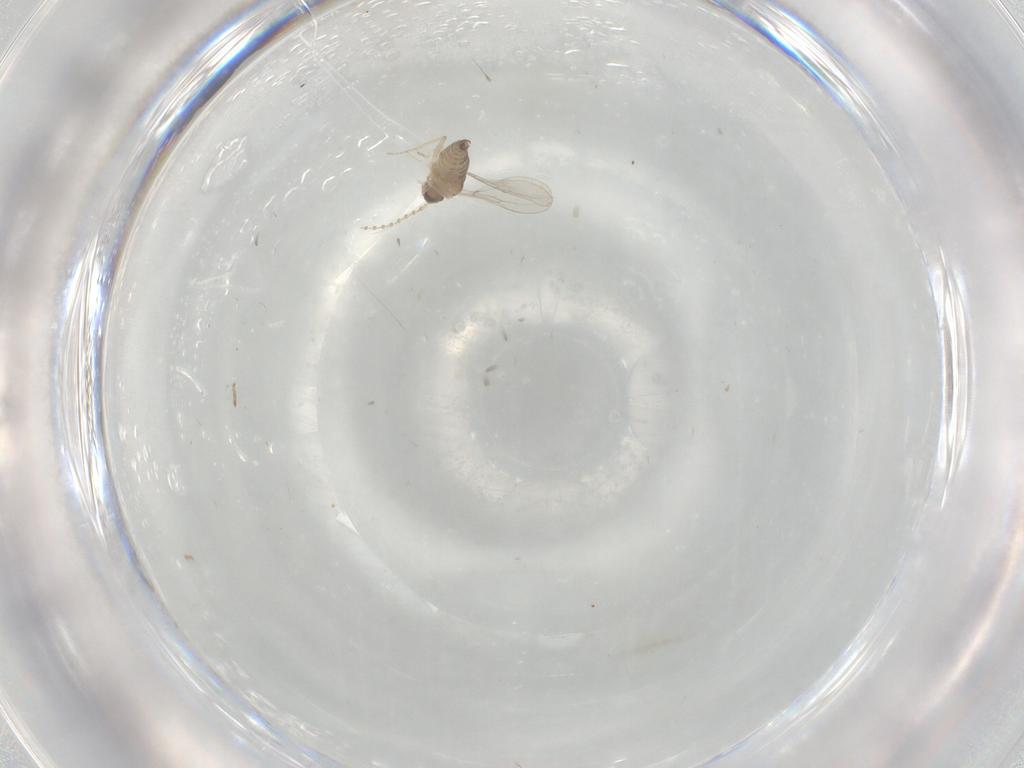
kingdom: Animalia
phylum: Arthropoda
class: Insecta
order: Diptera
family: Cecidomyiidae
